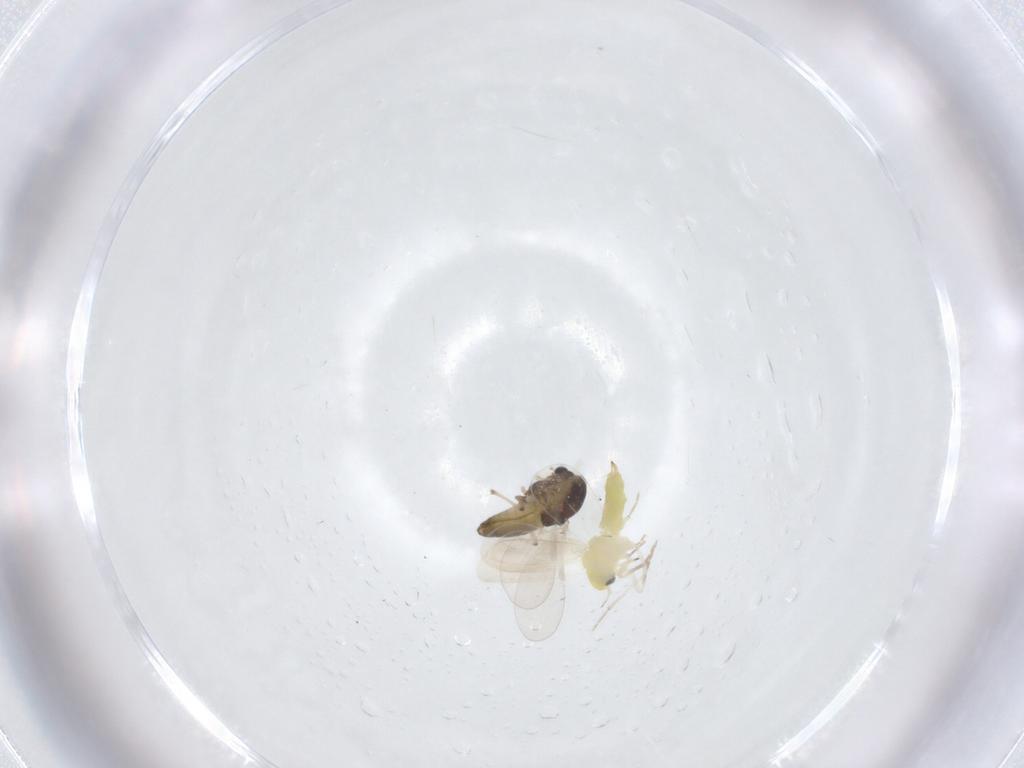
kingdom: Animalia
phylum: Arthropoda
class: Insecta
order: Diptera
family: Chironomidae
